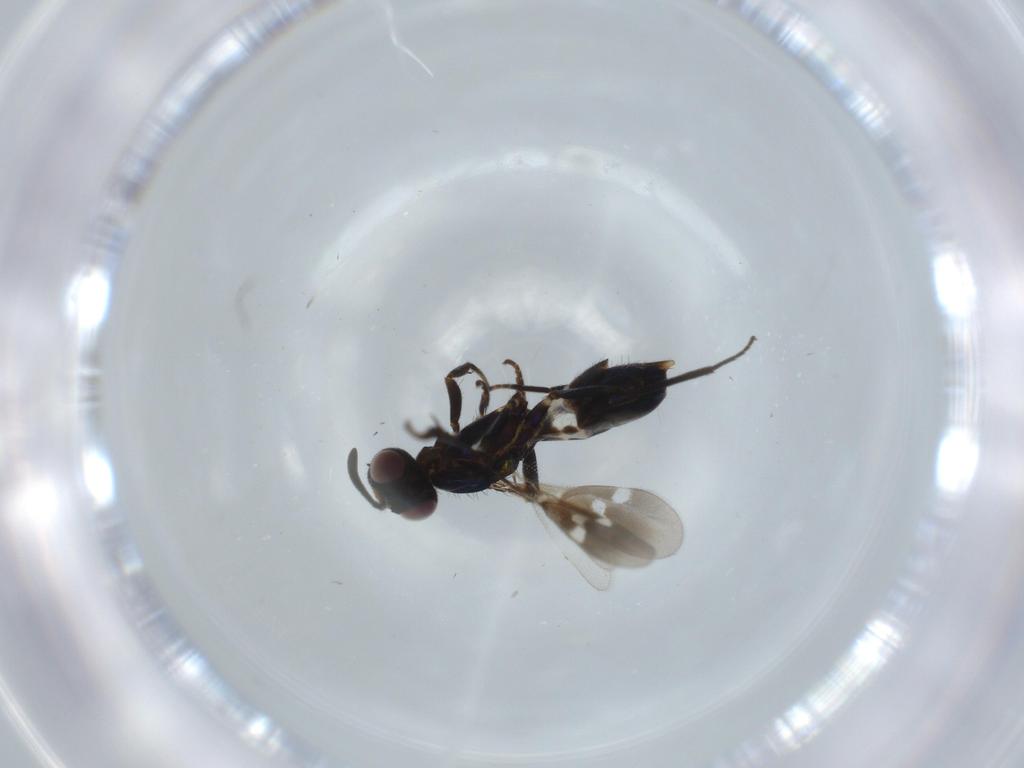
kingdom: Animalia
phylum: Arthropoda
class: Insecta
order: Hymenoptera
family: Eupelmidae
